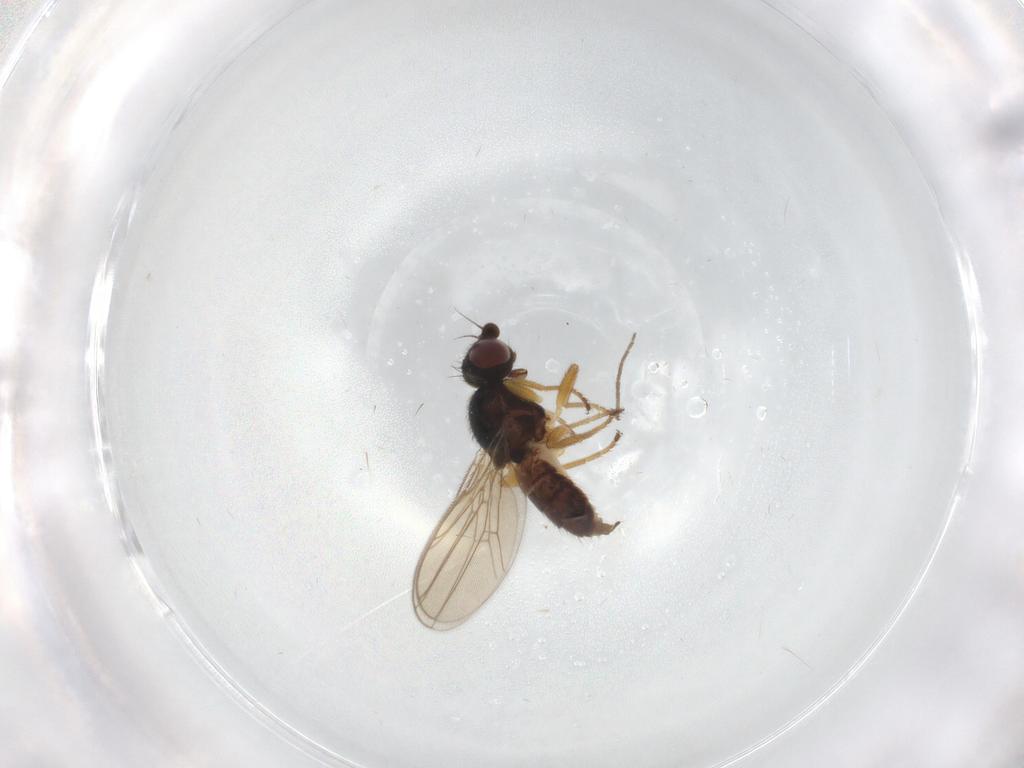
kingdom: Animalia
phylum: Arthropoda
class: Insecta
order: Diptera
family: Chloropidae
